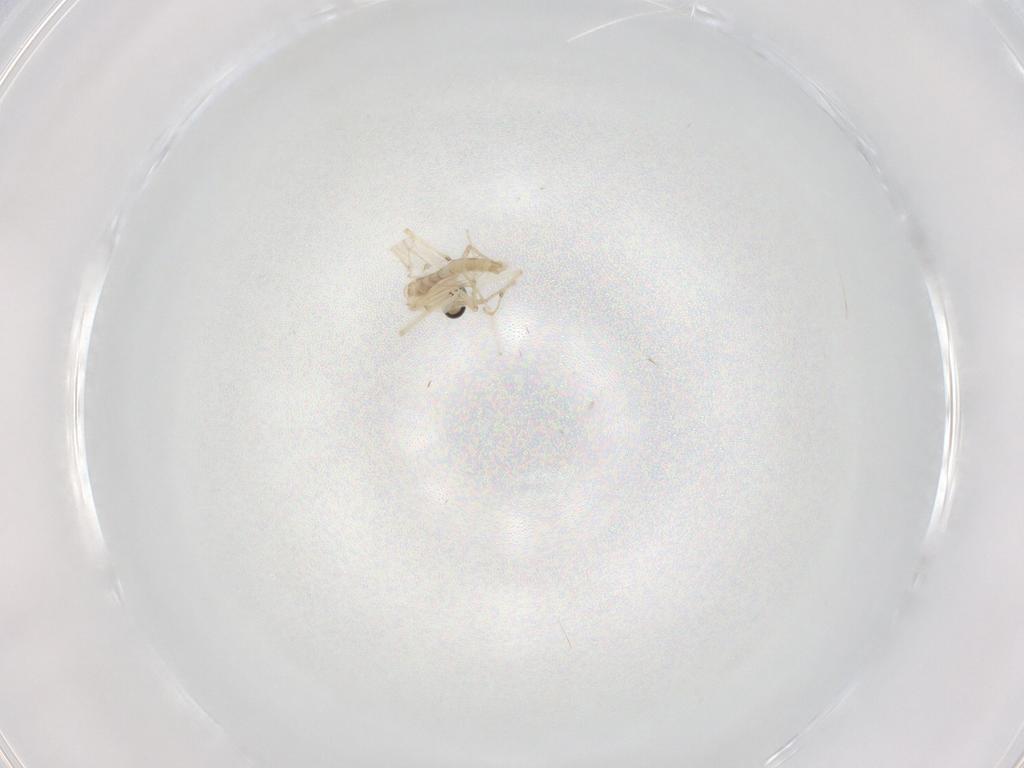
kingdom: Animalia
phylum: Arthropoda
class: Insecta
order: Diptera
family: Chironomidae
